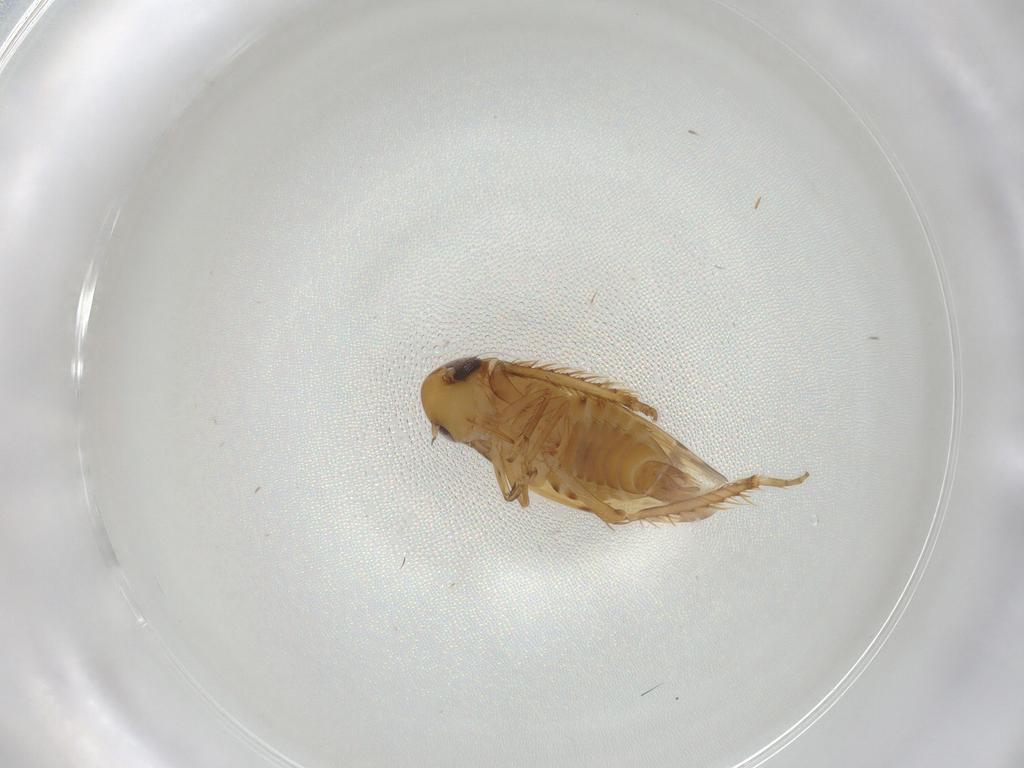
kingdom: Animalia
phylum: Arthropoda
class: Insecta
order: Hemiptera
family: Cicadellidae
